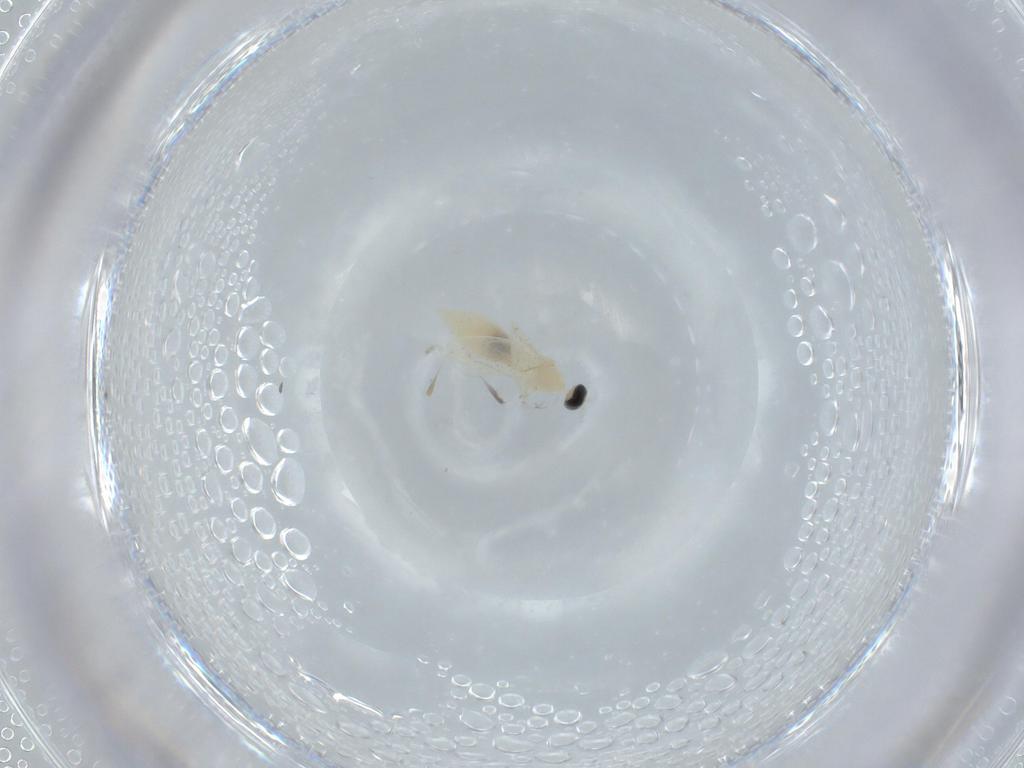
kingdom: Animalia
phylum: Arthropoda
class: Insecta
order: Diptera
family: Cecidomyiidae
